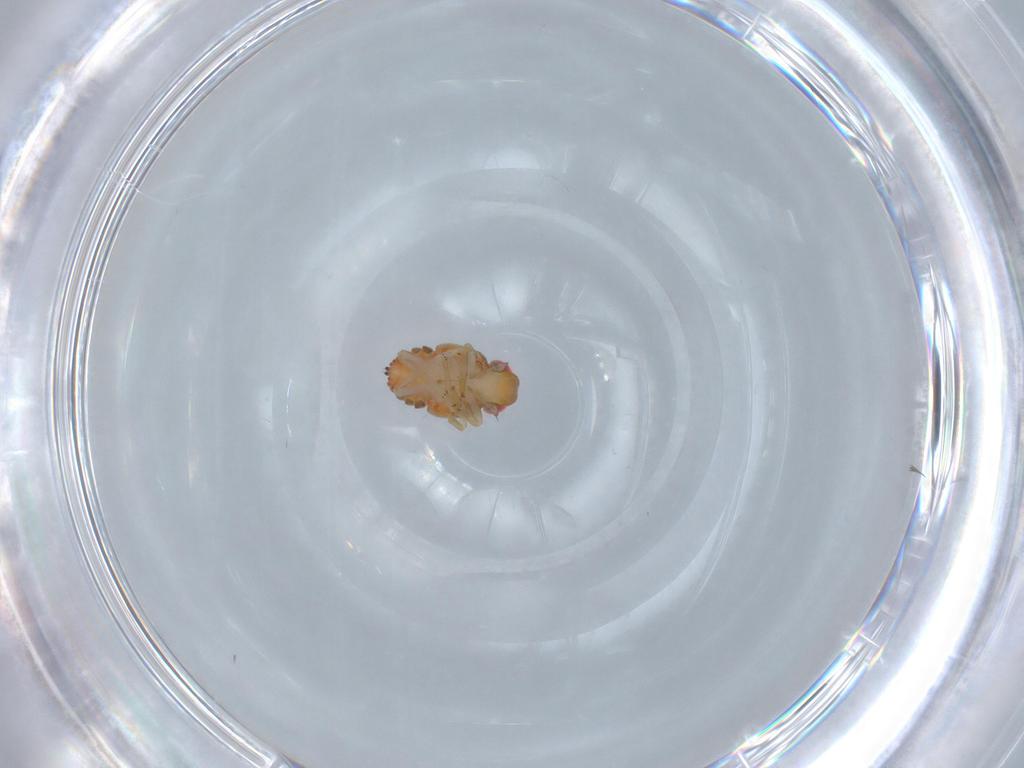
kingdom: Animalia
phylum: Arthropoda
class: Insecta
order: Hemiptera
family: Issidae
